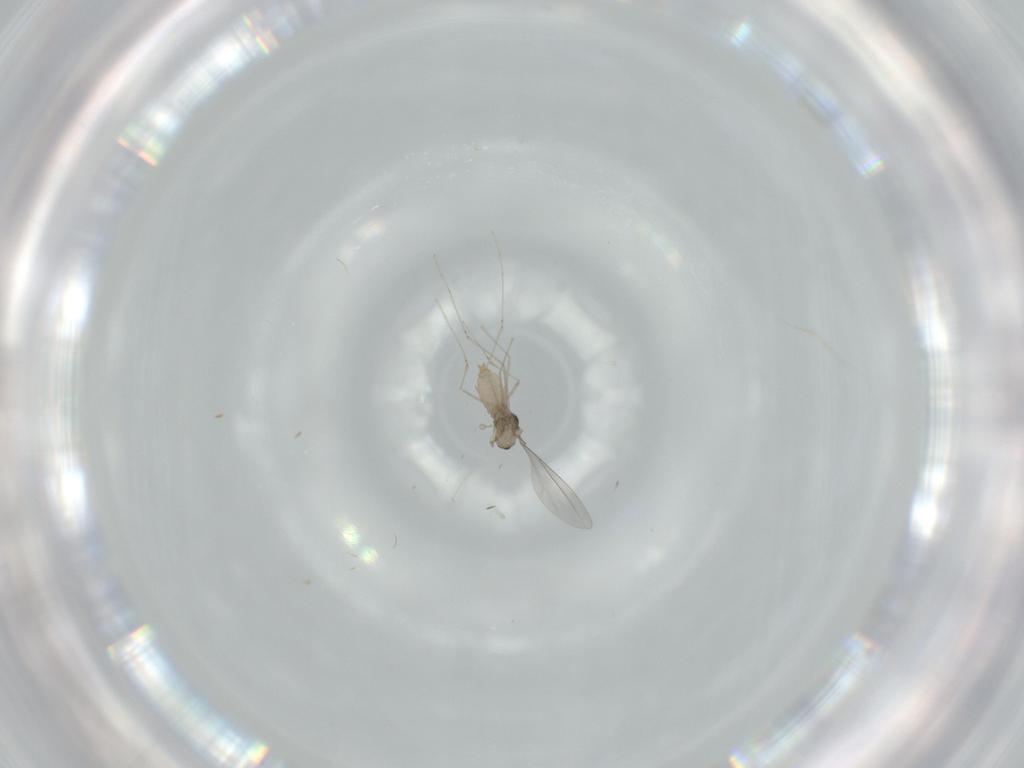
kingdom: Animalia
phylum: Arthropoda
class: Insecta
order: Diptera
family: Cecidomyiidae
